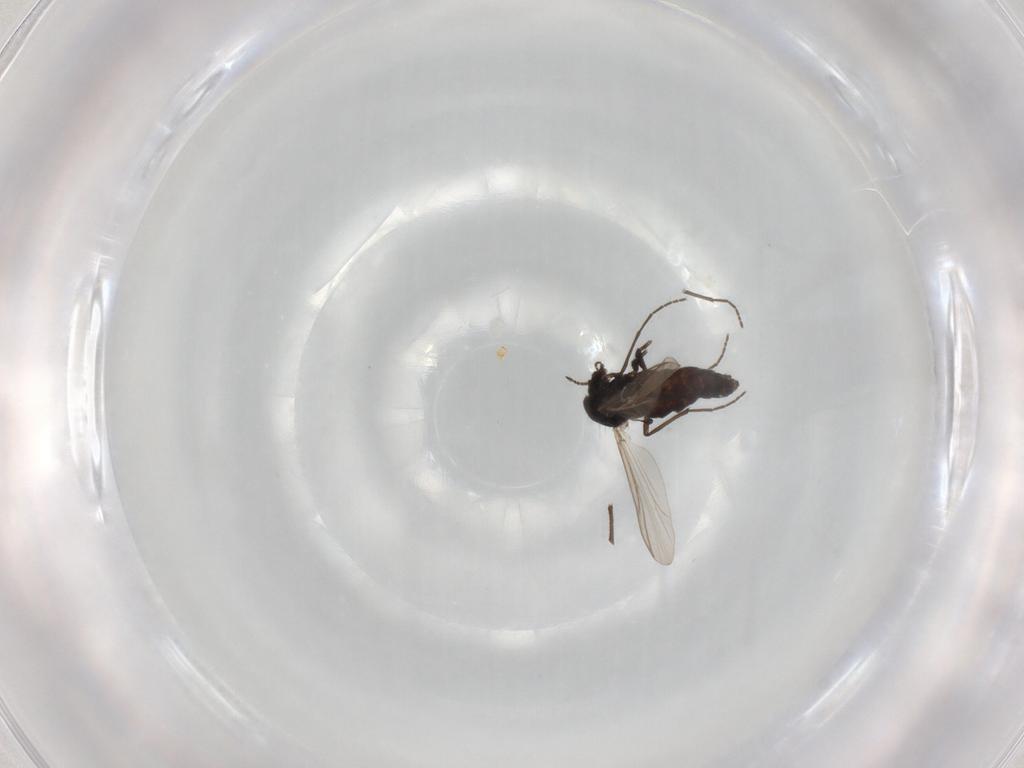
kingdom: Animalia
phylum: Arthropoda
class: Insecta
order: Diptera
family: Chironomidae
